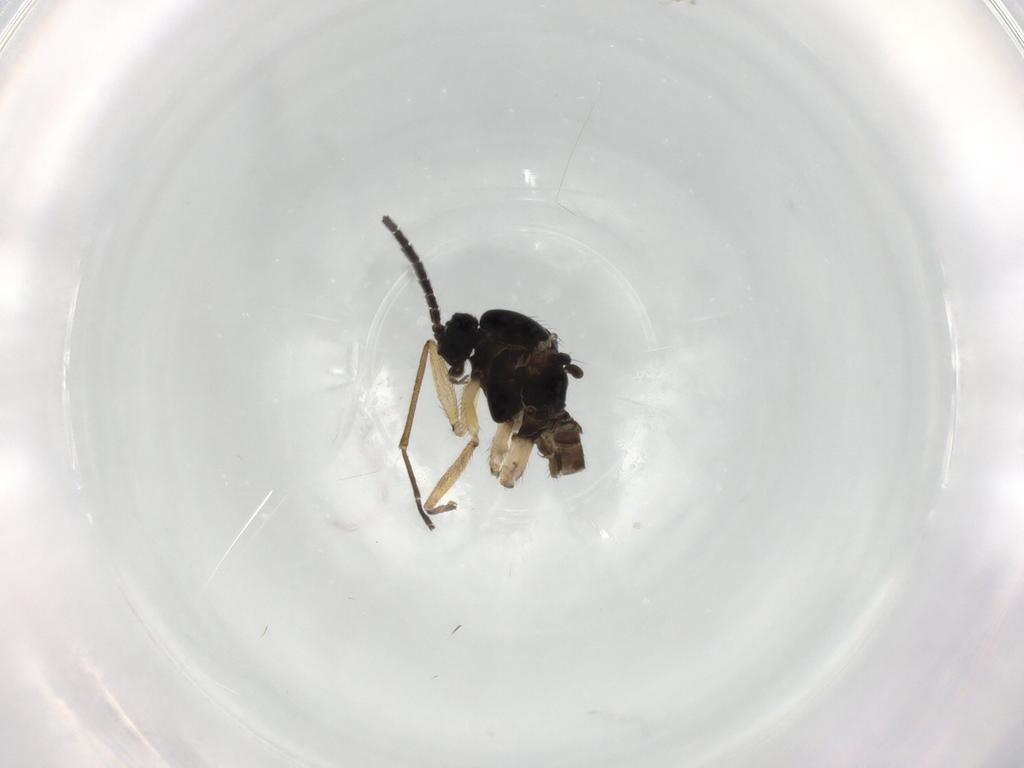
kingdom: Animalia
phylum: Arthropoda
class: Insecta
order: Diptera
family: Sciaridae
